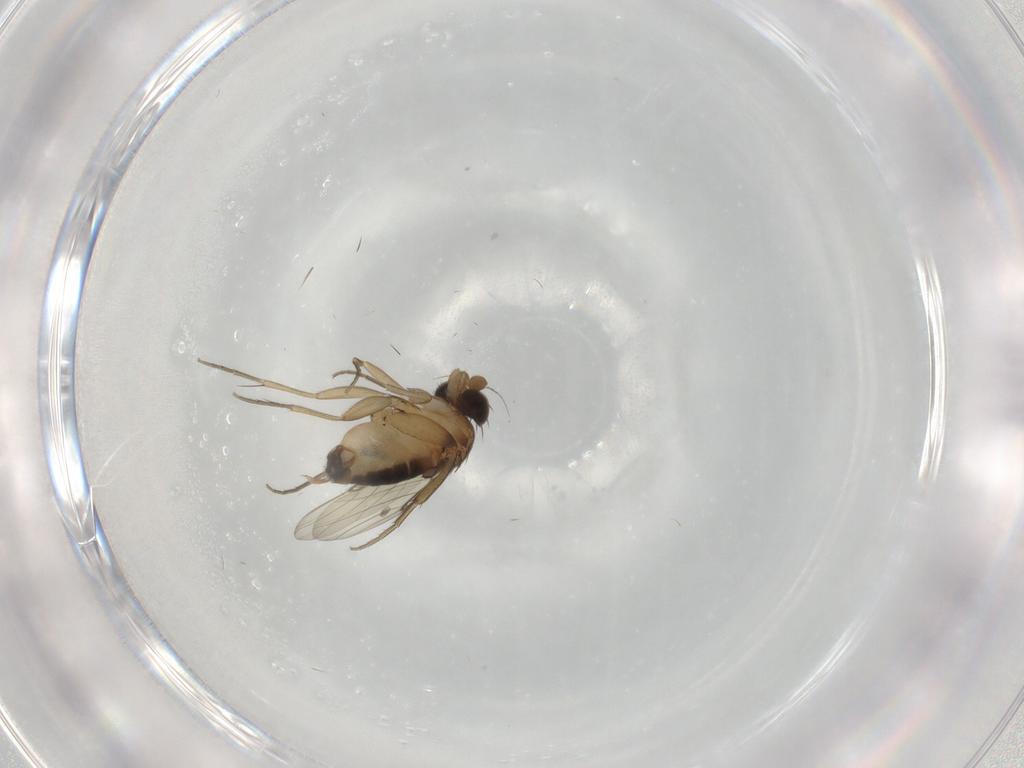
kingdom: Animalia
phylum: Arthropoda
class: Insecta
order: Diptera
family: Phoridae
